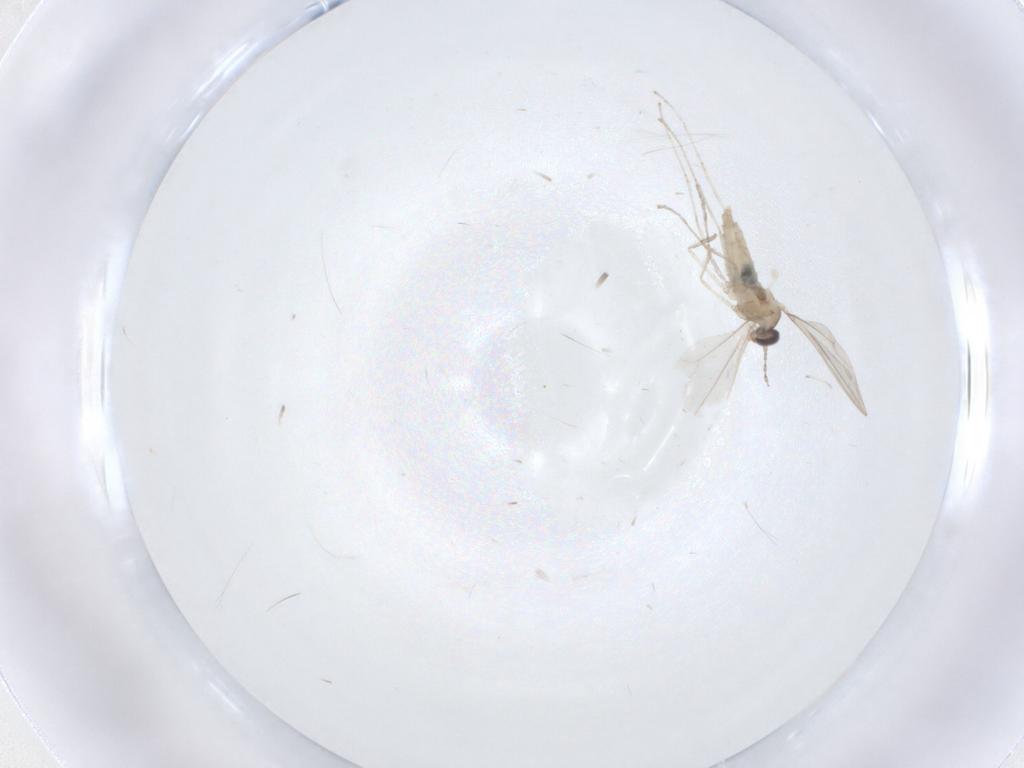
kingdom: Animalia
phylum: Arthropoda
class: Insecta
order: Diptera
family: Cecidomyiidae
